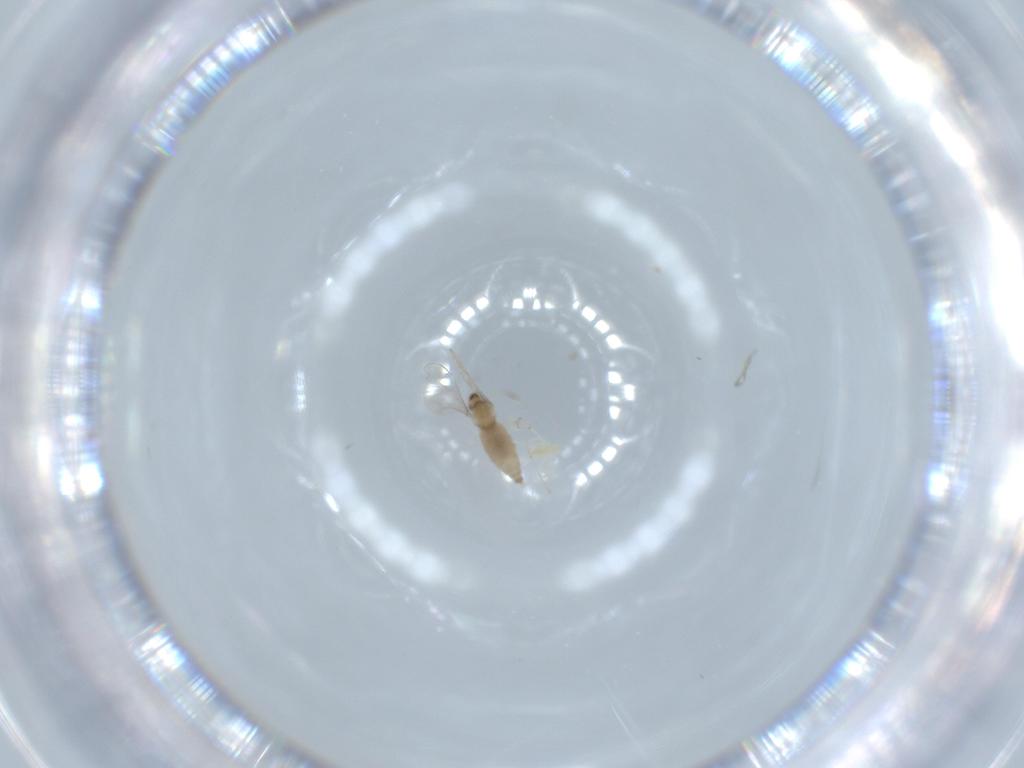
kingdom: Animalia
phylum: Arthropoda
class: Insecta
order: Diptera
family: Cecidomyiidae
